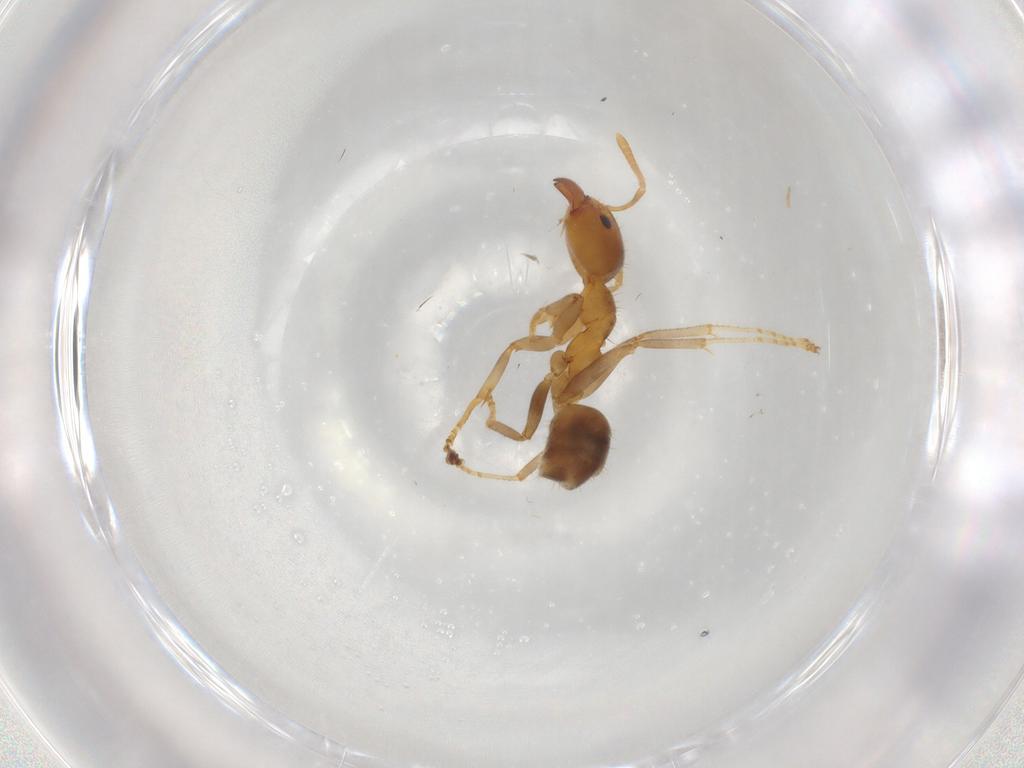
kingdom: Animalia
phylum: Arthropoda
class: Insecta
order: Hymenoptera
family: Formicidae
